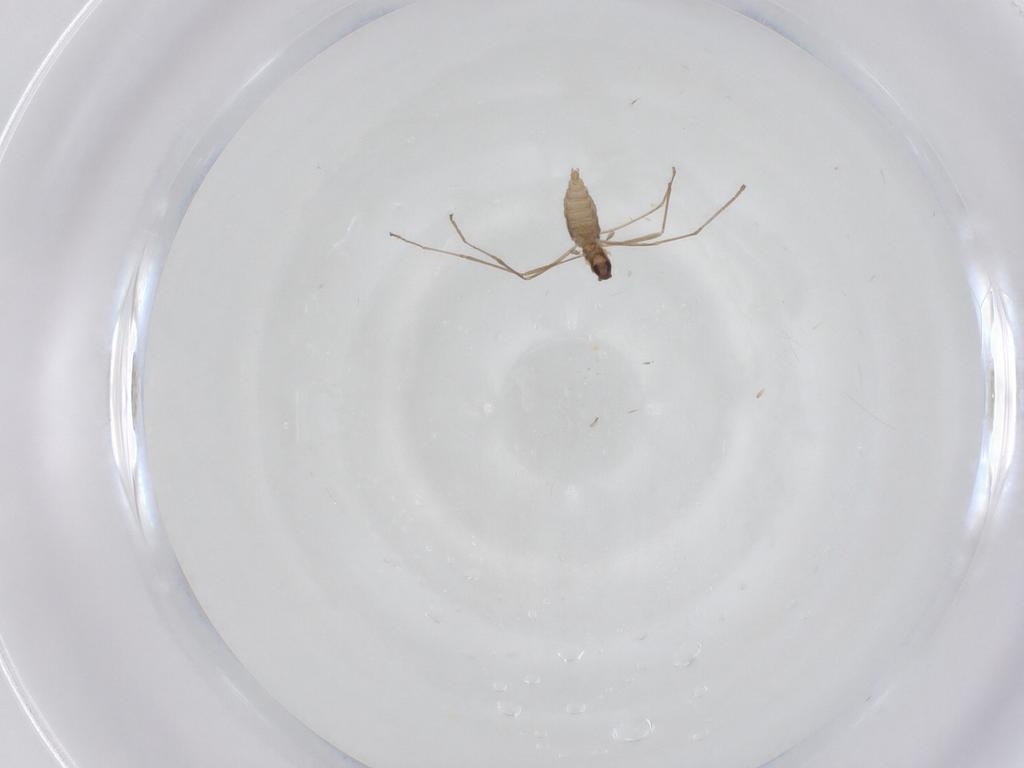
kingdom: Animalia
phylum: Arthropoda
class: Insecta
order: Diptera
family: Cecidomyiidae
